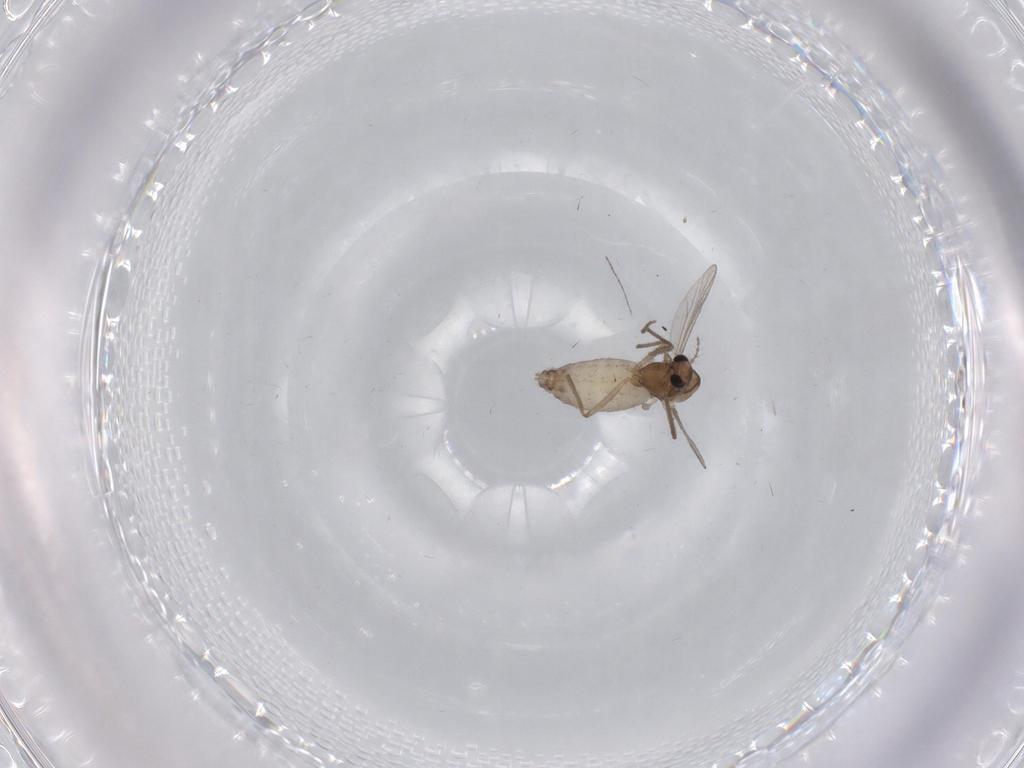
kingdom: Animalia
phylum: Arthropoda
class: Insecta
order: Diptera
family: Chironomidae
